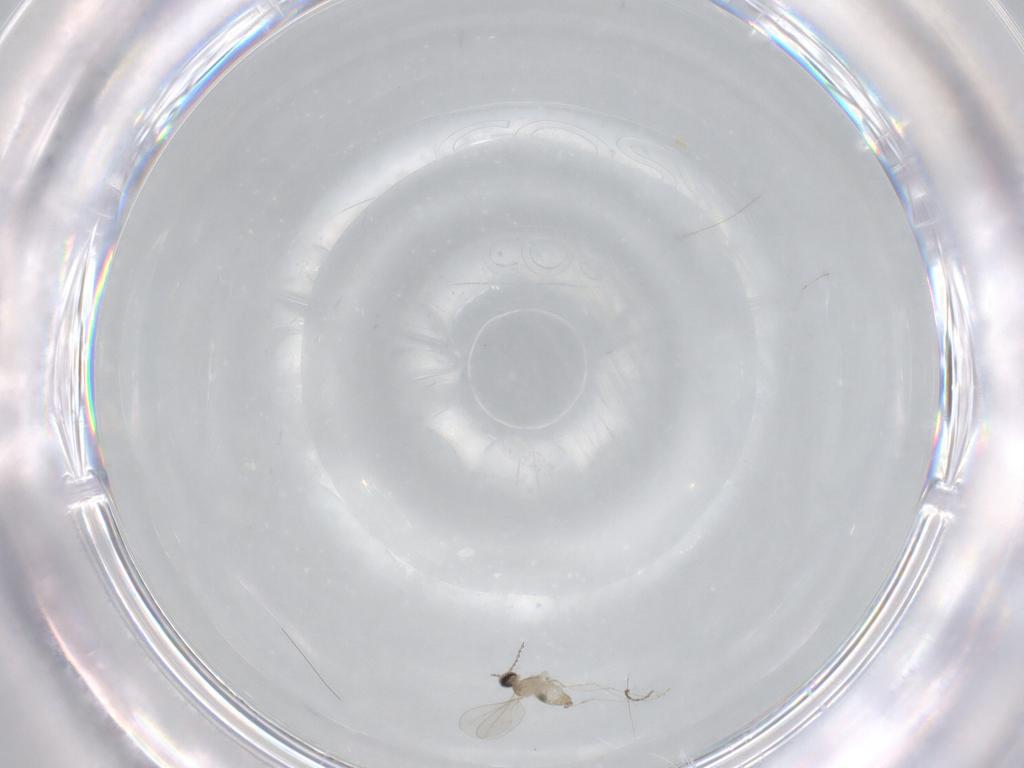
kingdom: Animalia
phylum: Arthropoda
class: Insecta
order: Diptera
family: Cecidomyiidae
